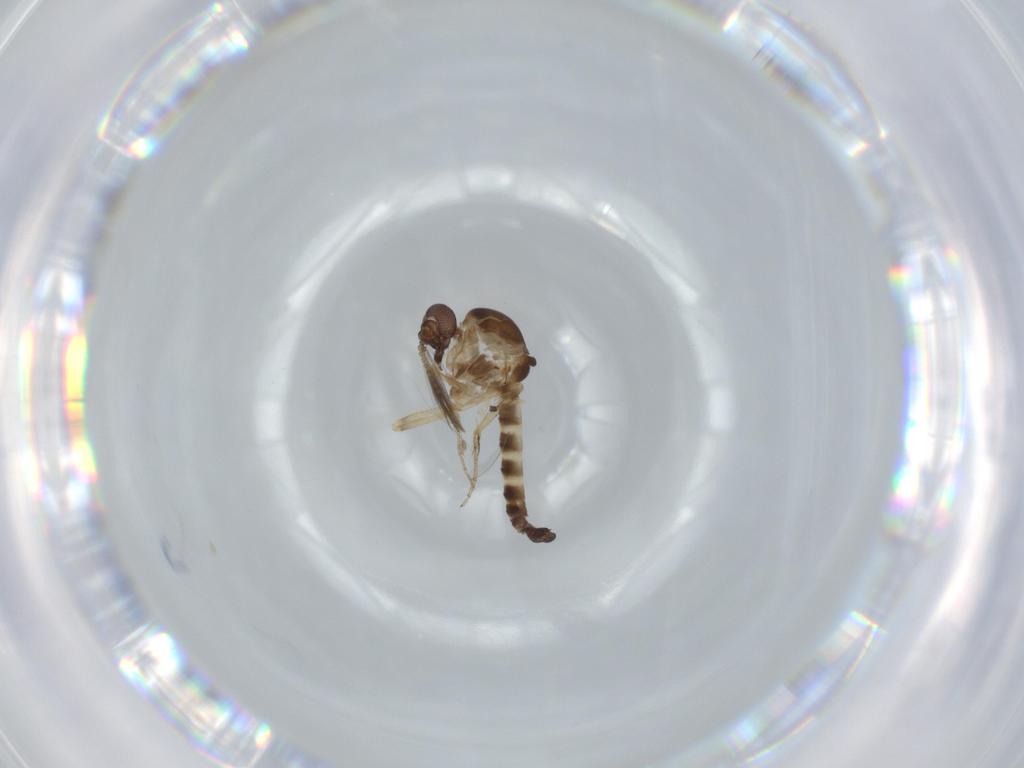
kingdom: Animalia
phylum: Arthropoda
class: Insecta
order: Diptera
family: Ceratopogonidae
